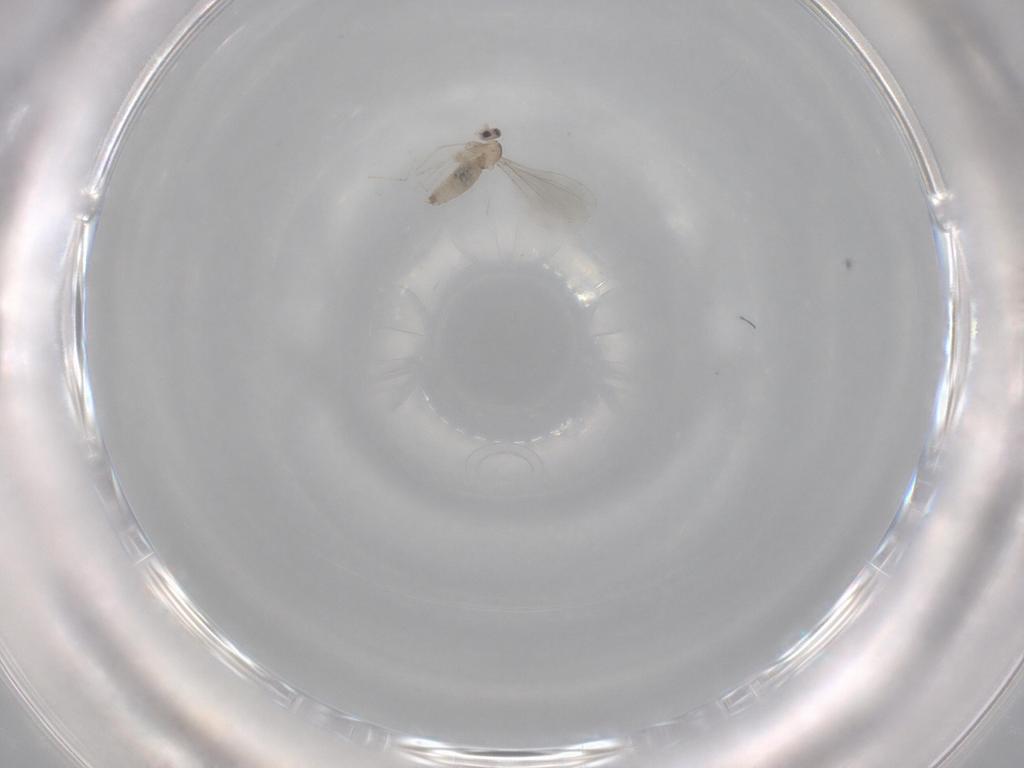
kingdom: Animalia
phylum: Arthropoda
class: Insecta
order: Diptera
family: Cecidomyiidae
